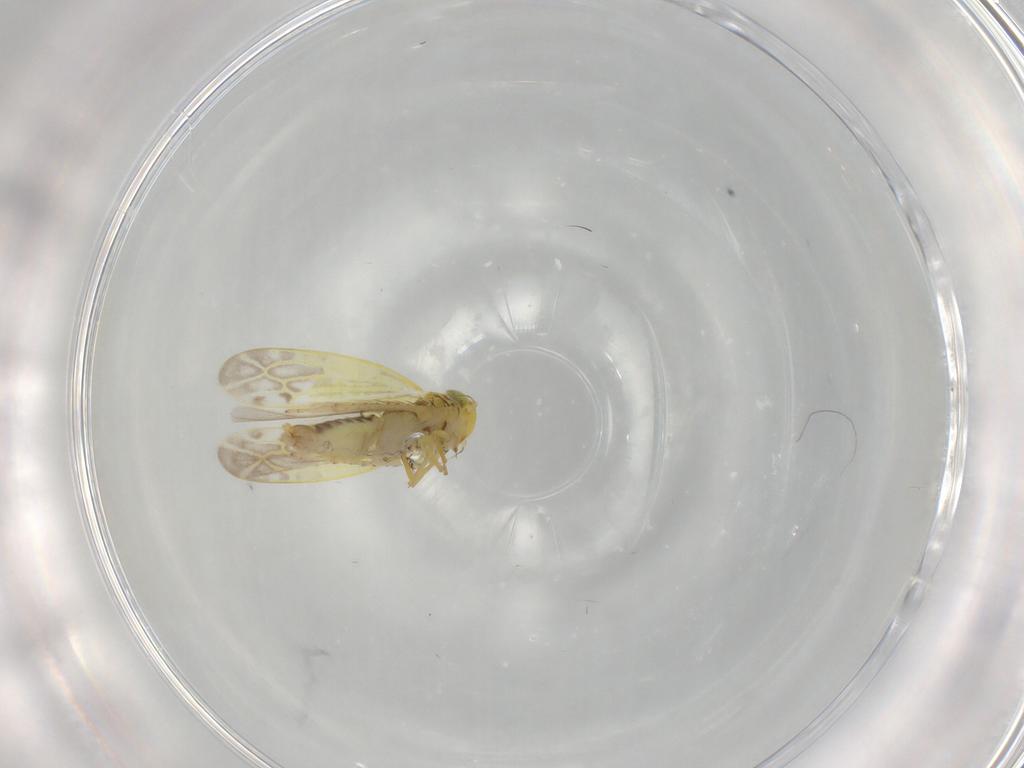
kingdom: Animalia
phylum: Arthropoda
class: Insecta
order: Hemiptera
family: Cicadellidae
